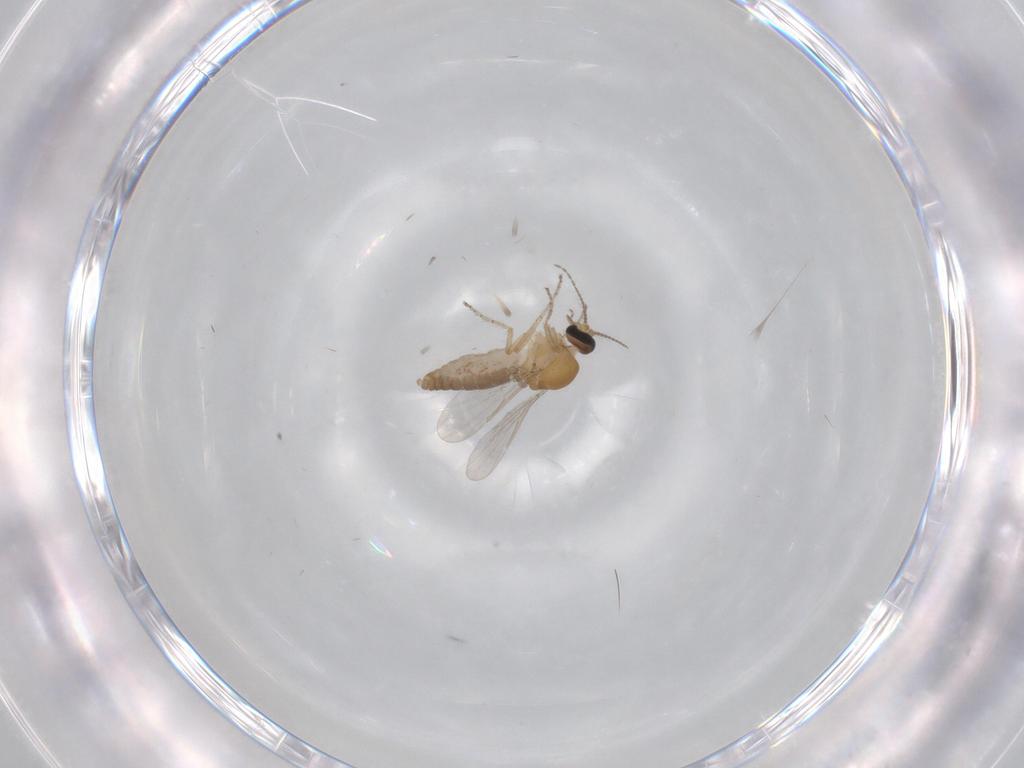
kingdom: Animalia
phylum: Arthropoda
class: Insecta
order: Diptera
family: Ceratopogonidae
